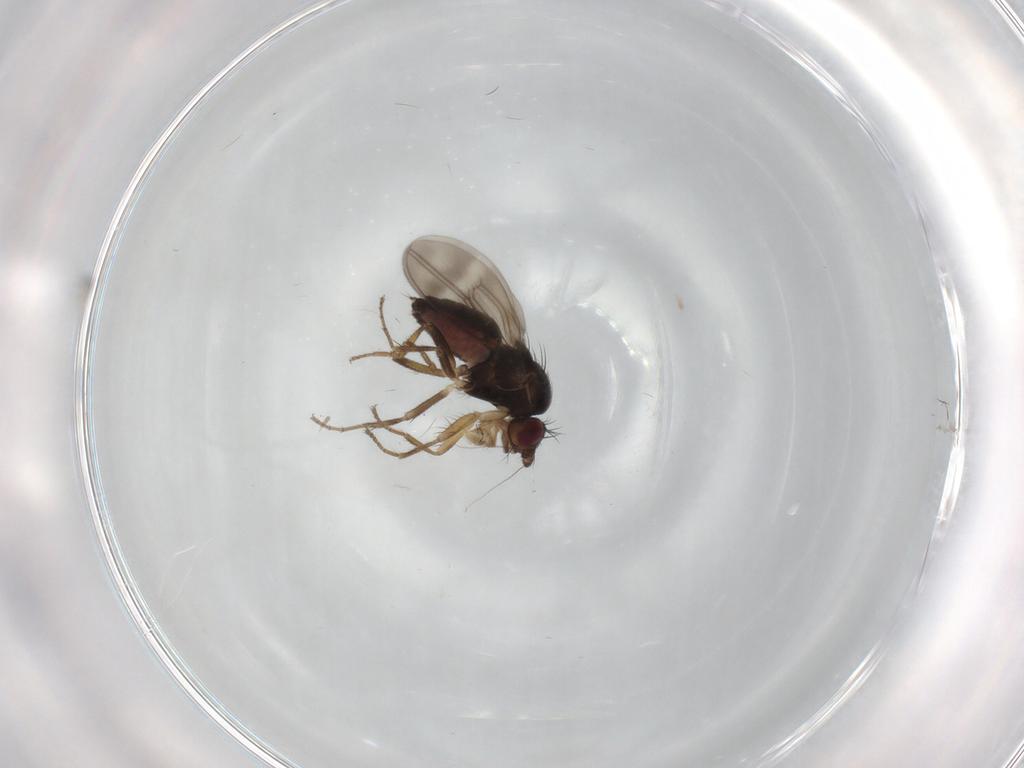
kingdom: Animalia
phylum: Arthropoda
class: Insecta
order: Diptera
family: Sphaeroceridae
